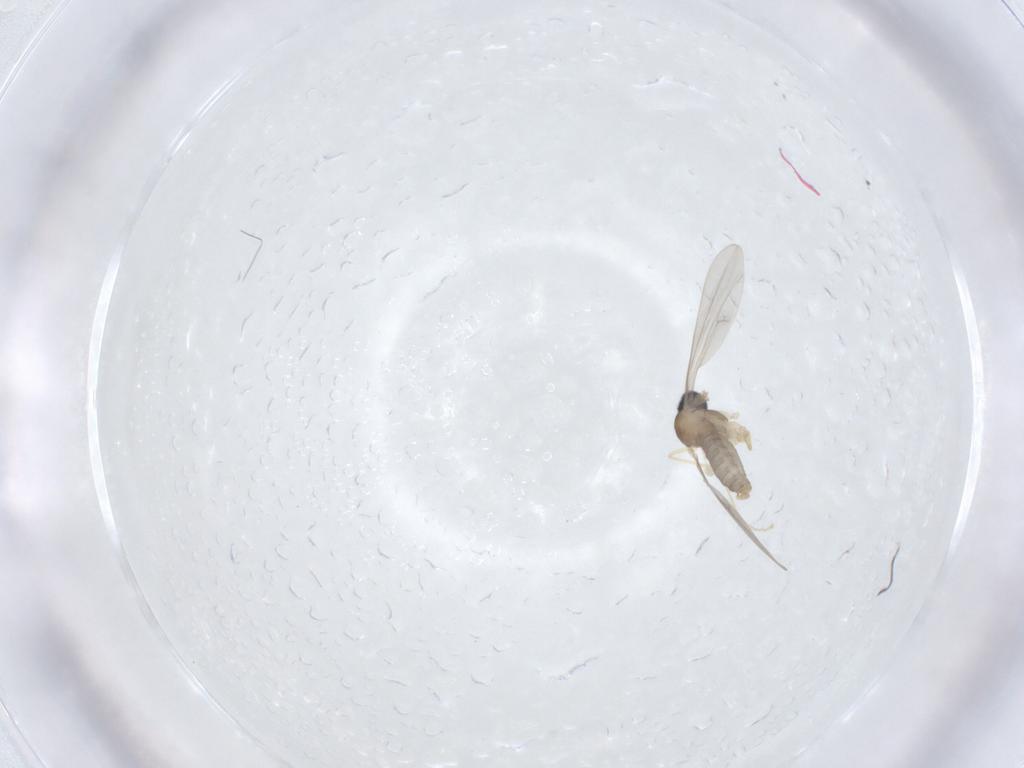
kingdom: Animalia
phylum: Arthropoda
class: Insecta
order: Diptera
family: Cecidomyiidae
